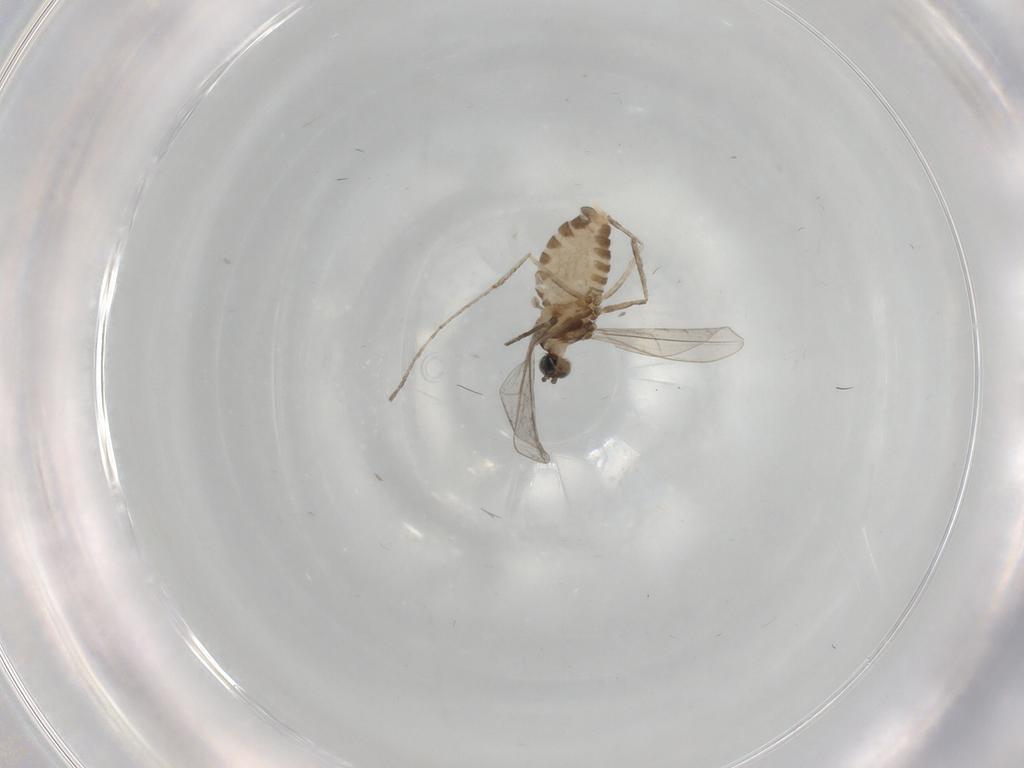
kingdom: Animalia
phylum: Arthropoda
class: Insecta
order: Diptera
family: Cecidomyiidae
